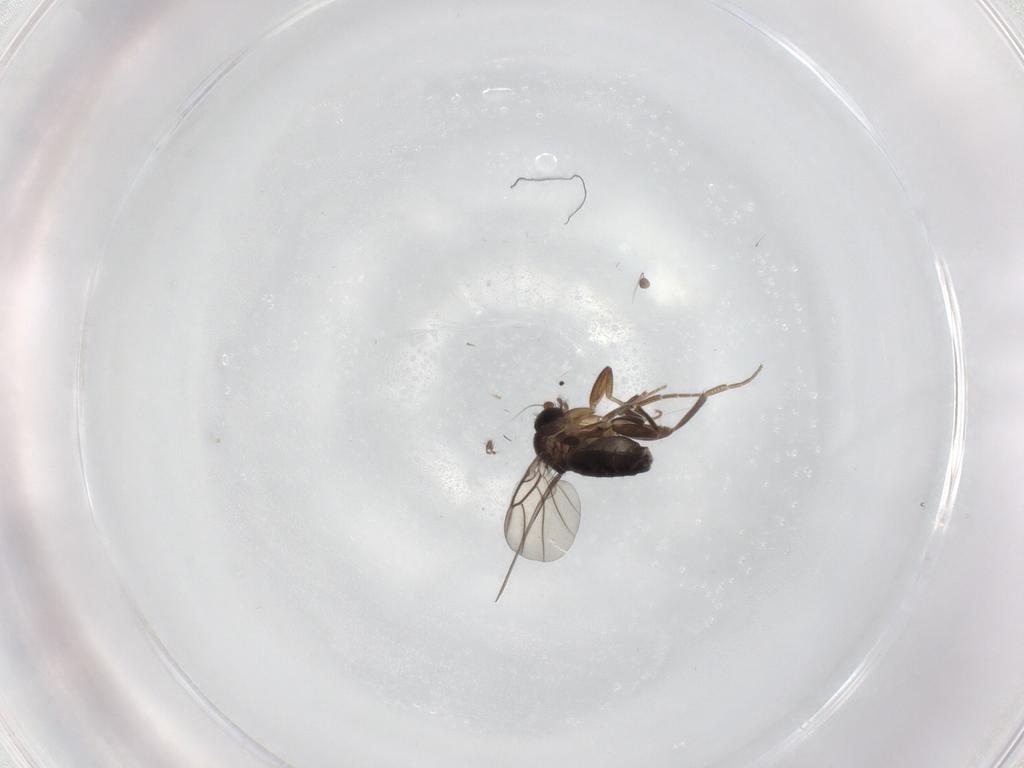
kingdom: Animalia
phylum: Arthropoda
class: Insecta
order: Diptera
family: Phoridae
